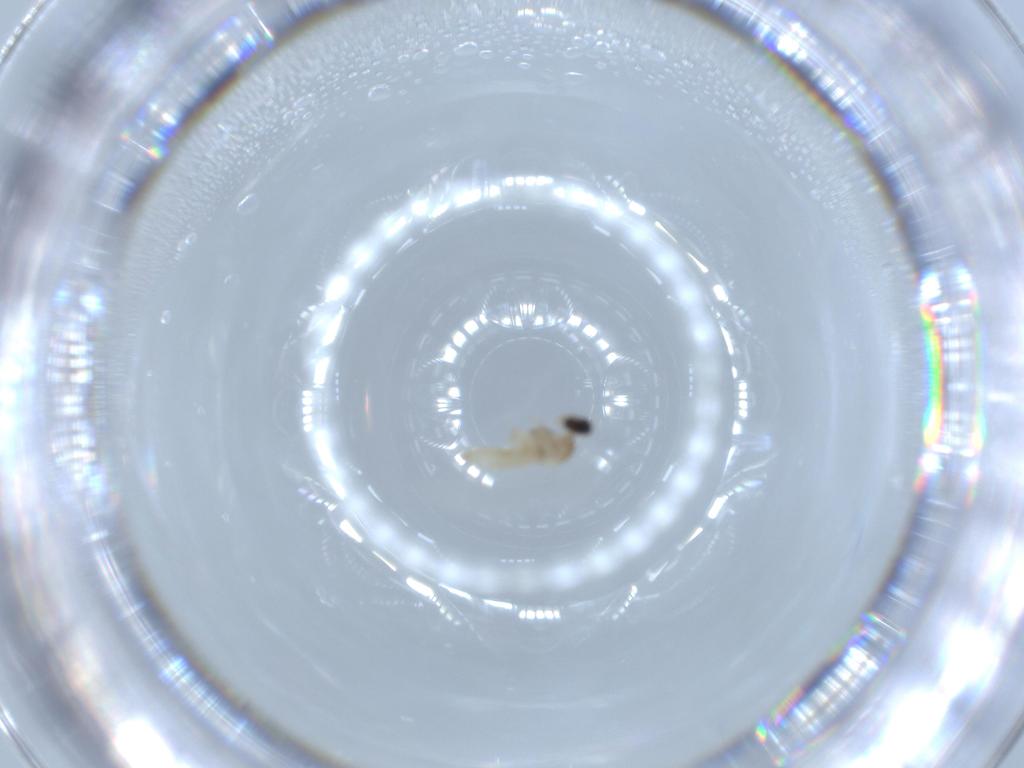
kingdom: Animalia
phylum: Arthropoda
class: Insecta
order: Diptera
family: Cecidomyiidae
